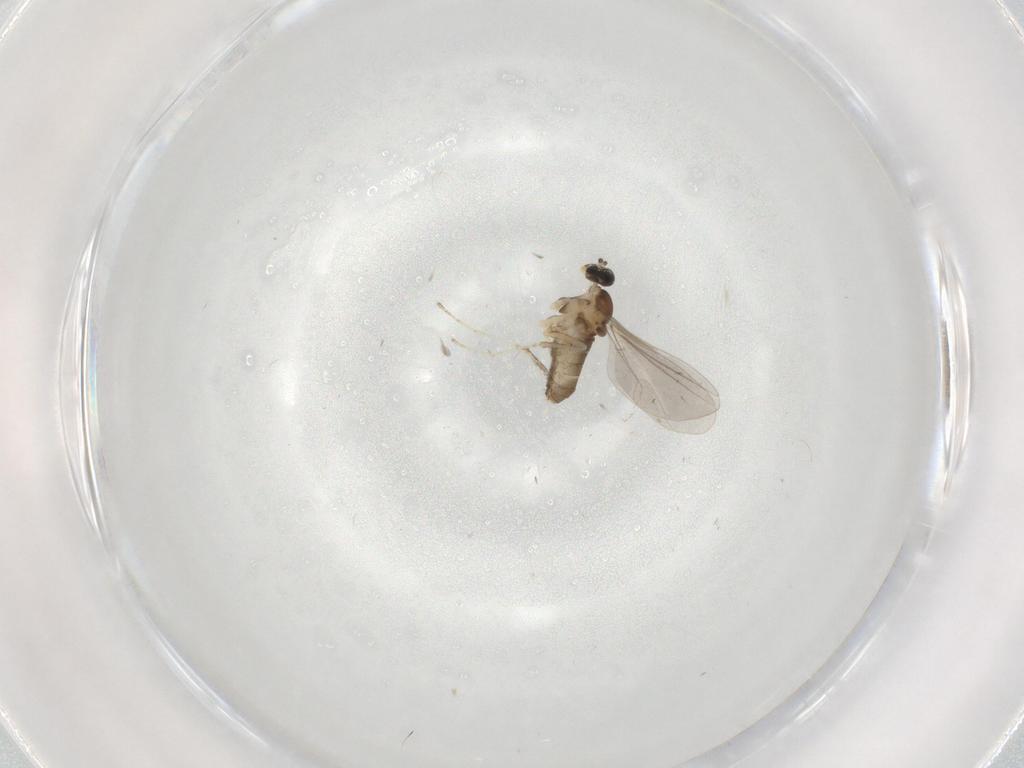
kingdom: Animalia
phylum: Arthropoda
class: Insecta
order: Diptera
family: Cecidomyiidae
